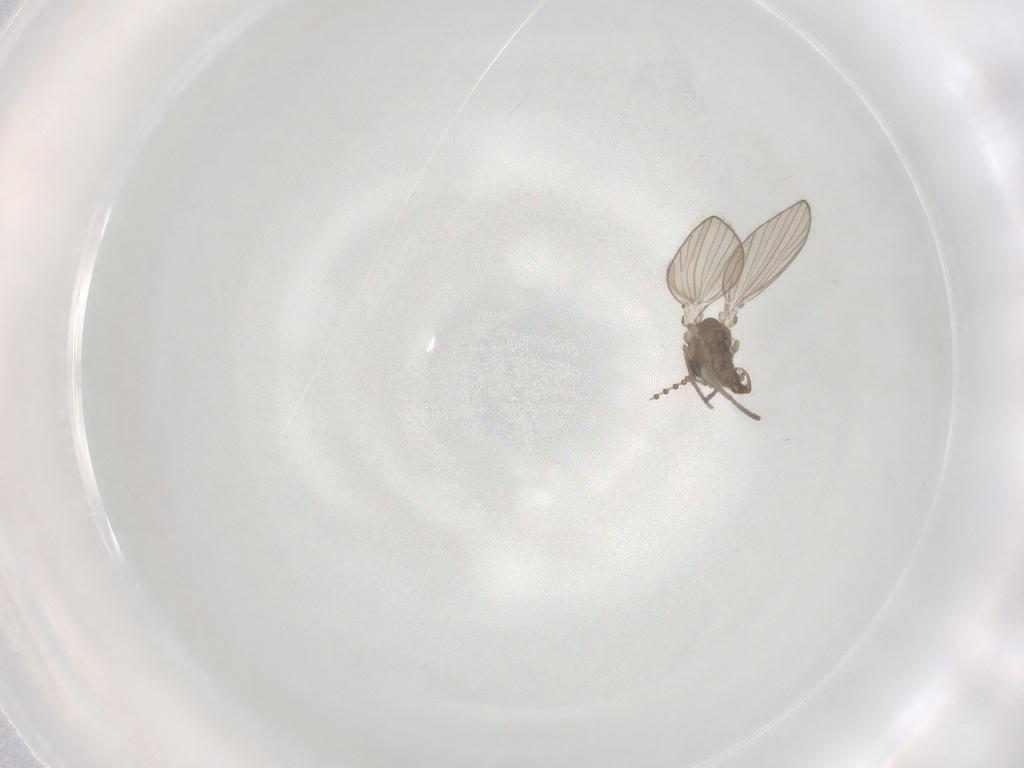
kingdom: Animalia
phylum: Arthropoda
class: Insecta
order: Diptera
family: Psychodidae
